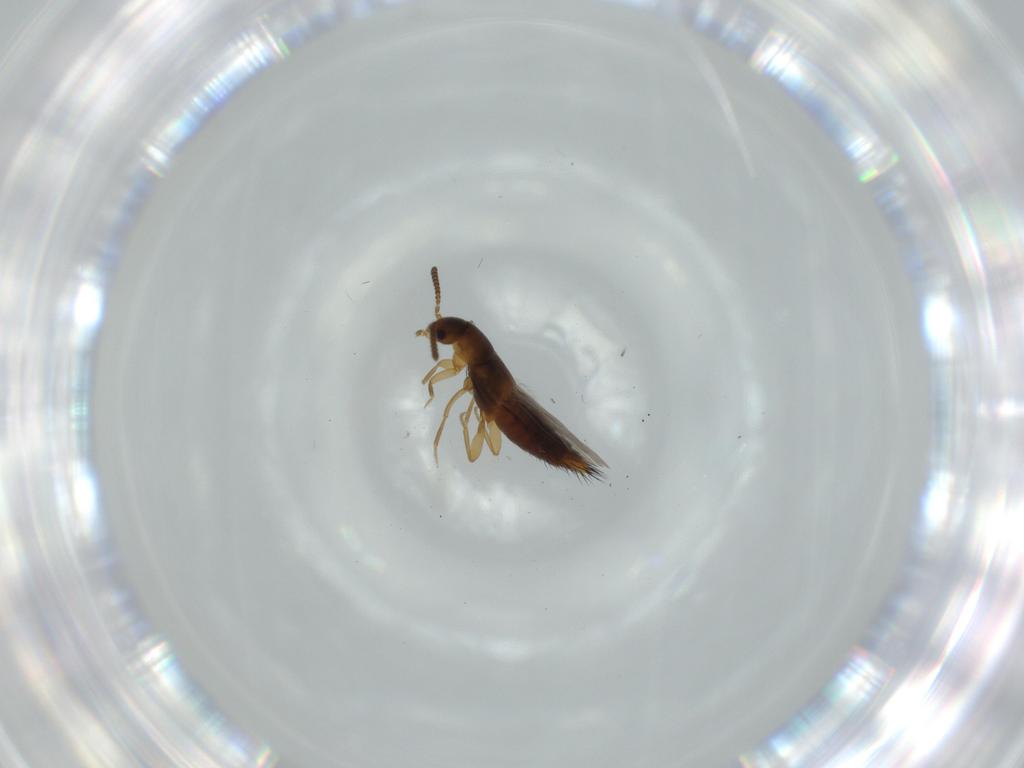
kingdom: Animalia
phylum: Arthropoda
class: Insecta
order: Coleoptera
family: Staphylinidae
